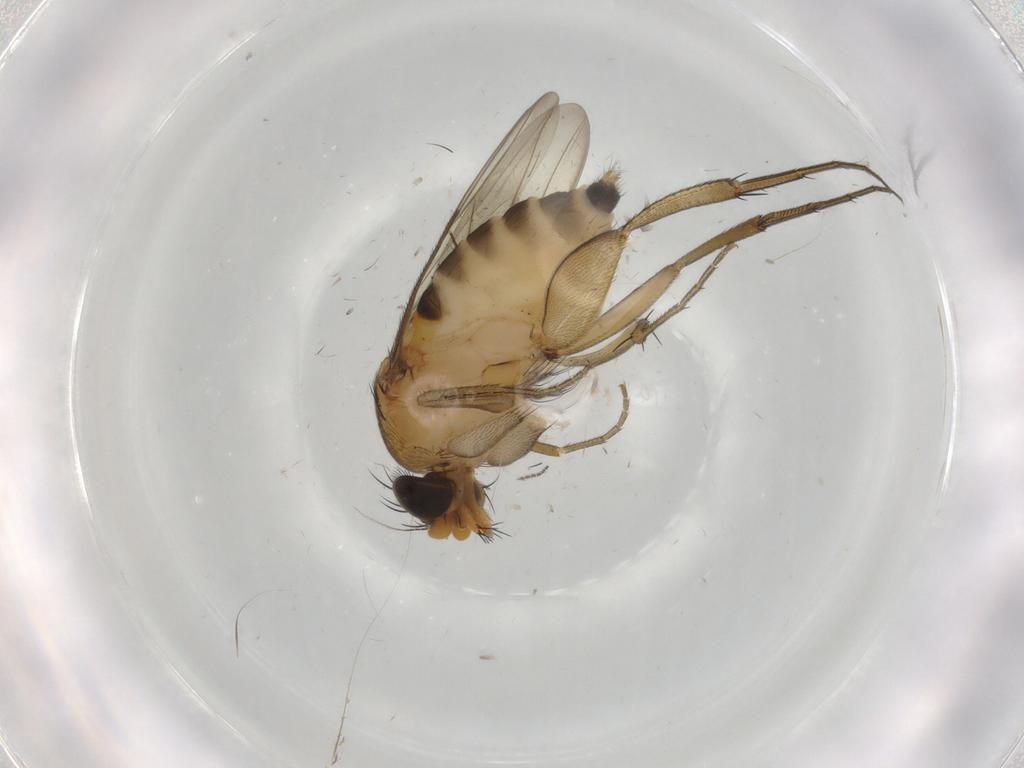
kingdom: Animalia
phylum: Arthropoda
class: Insecta
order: Diptera
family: Phoridae
